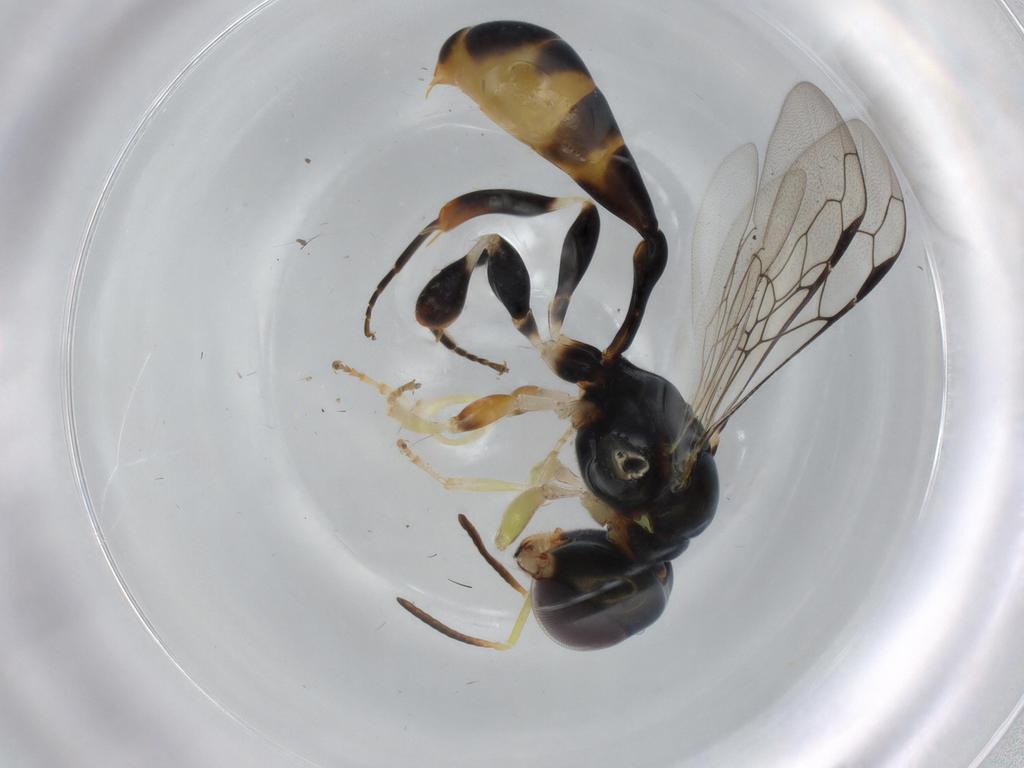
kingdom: Animalia
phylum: Arthropoda
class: Insecta
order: Hymenoptera
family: Crabronidae
